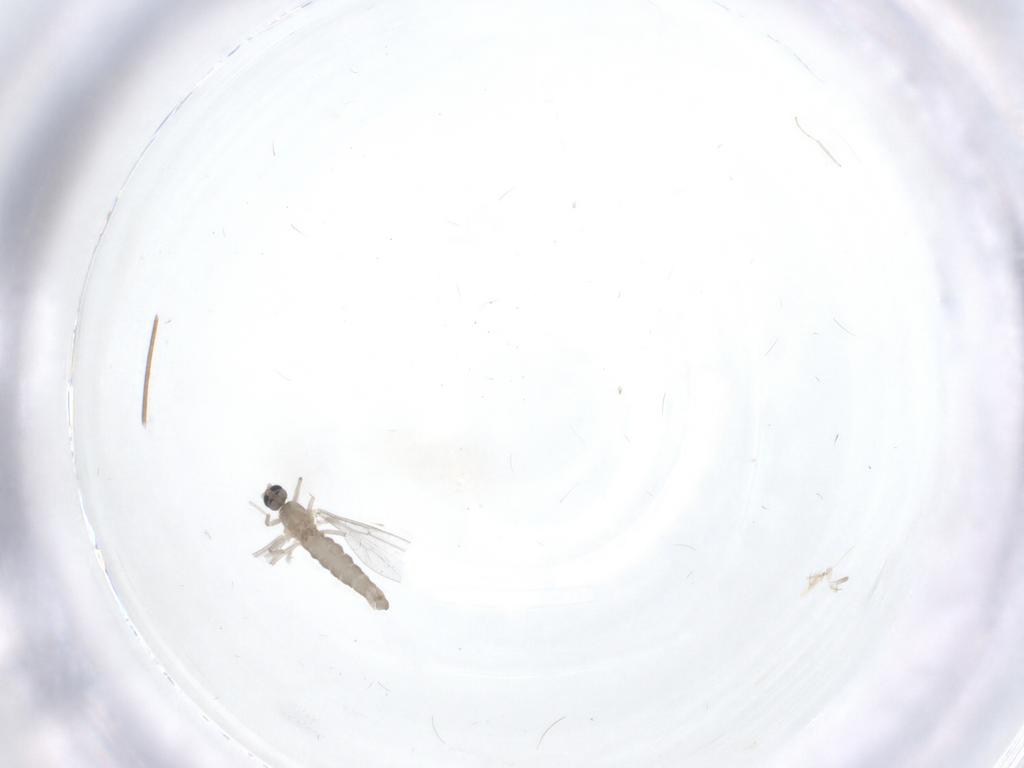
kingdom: Animalia
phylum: Arthropoda
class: Insecta
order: Diptera
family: Cecidomyiidae
